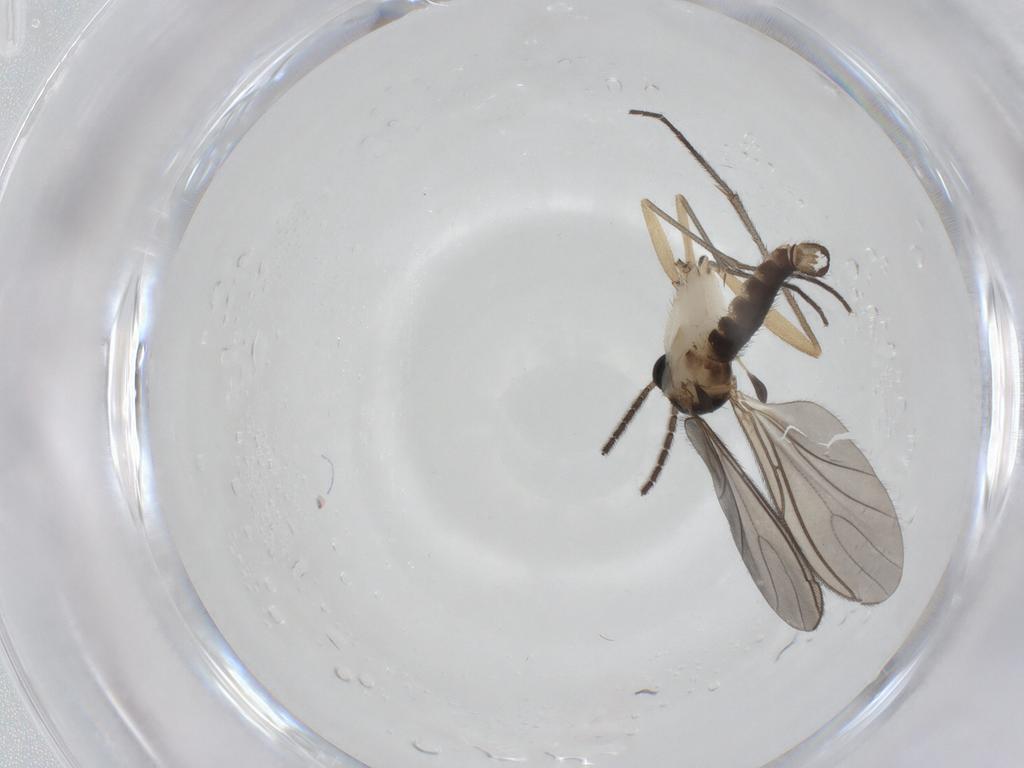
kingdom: Animalia
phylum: Arthropoda
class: Insecta
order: Diptera
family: Sciaridae
